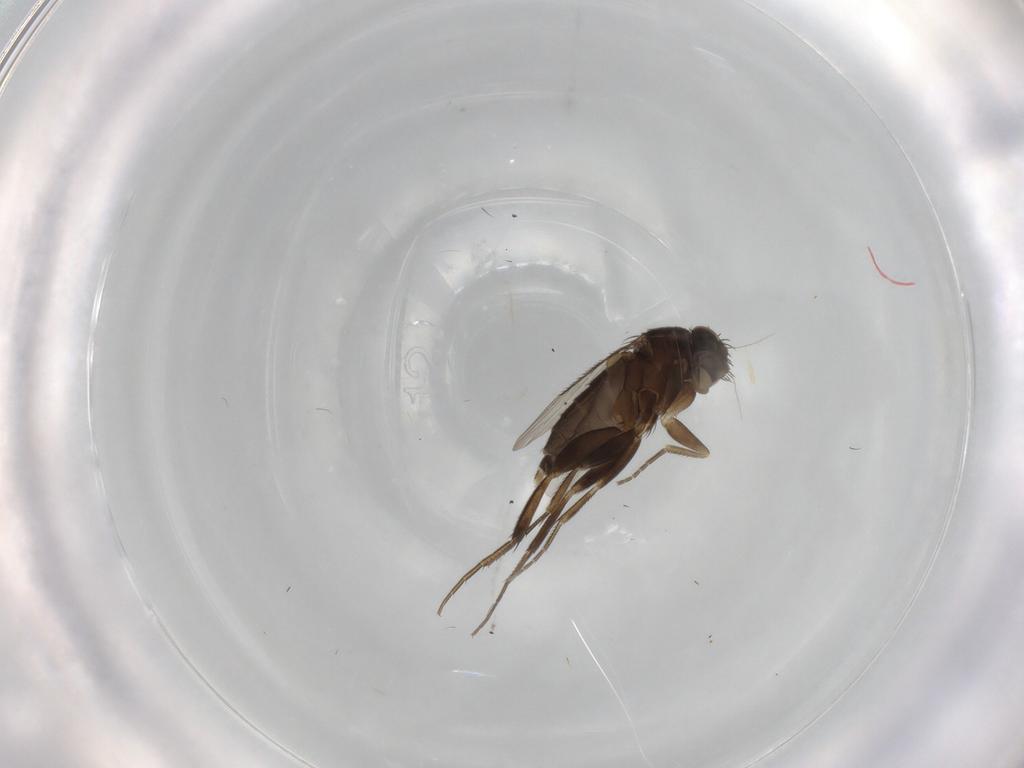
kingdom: Animalia
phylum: Arthropoda
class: Insecta
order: Diptera
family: Phoridae
